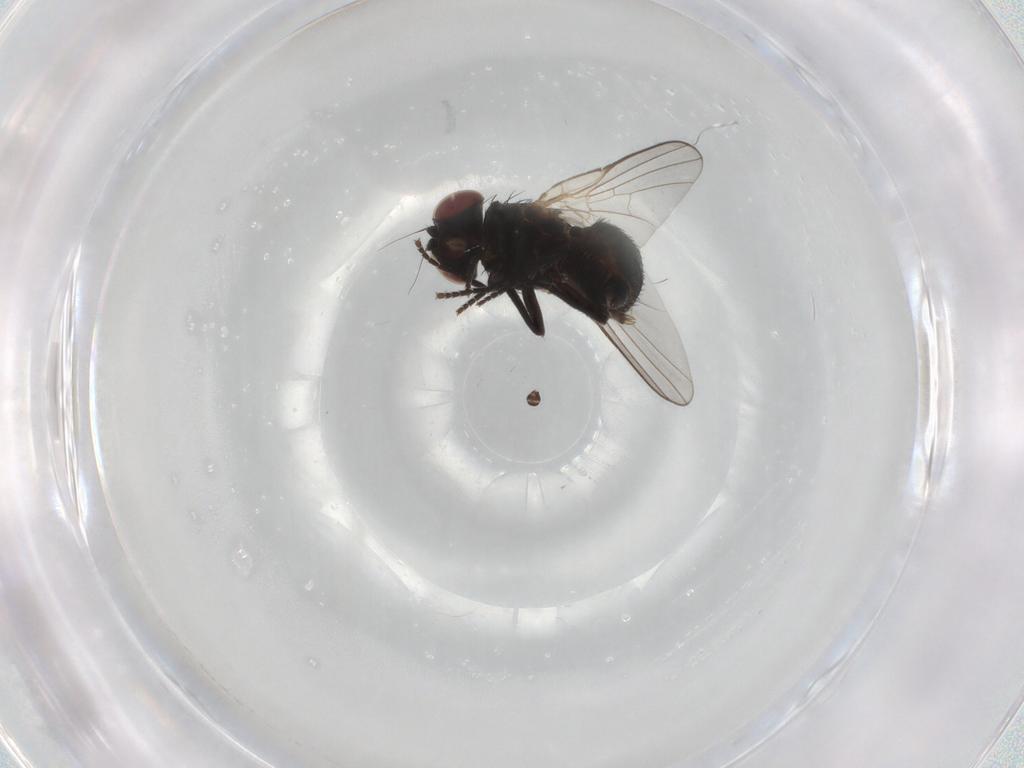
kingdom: Animalia
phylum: Arthropoda
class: Insecta
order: Diptera
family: Agromyzidae
